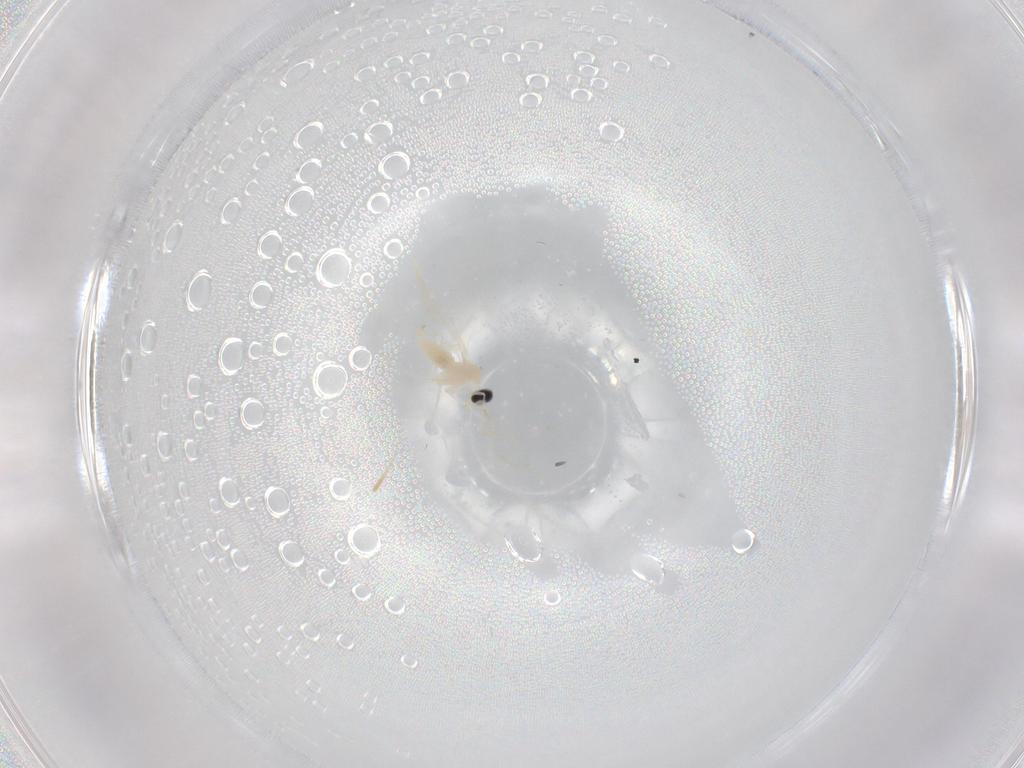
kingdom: Animalia
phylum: Arthropoda
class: Insecta
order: Diptera
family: Cecidomyiidae
